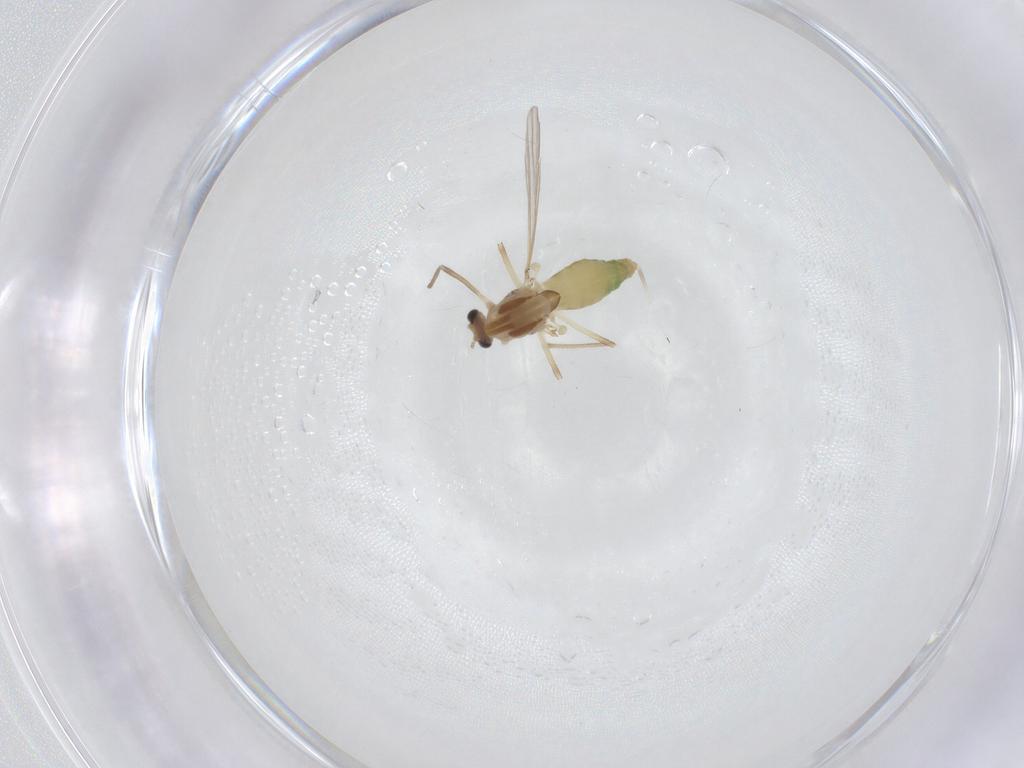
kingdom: Animalia
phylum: Arthropoda
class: Insecta
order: Diptera
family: Chironomidae
